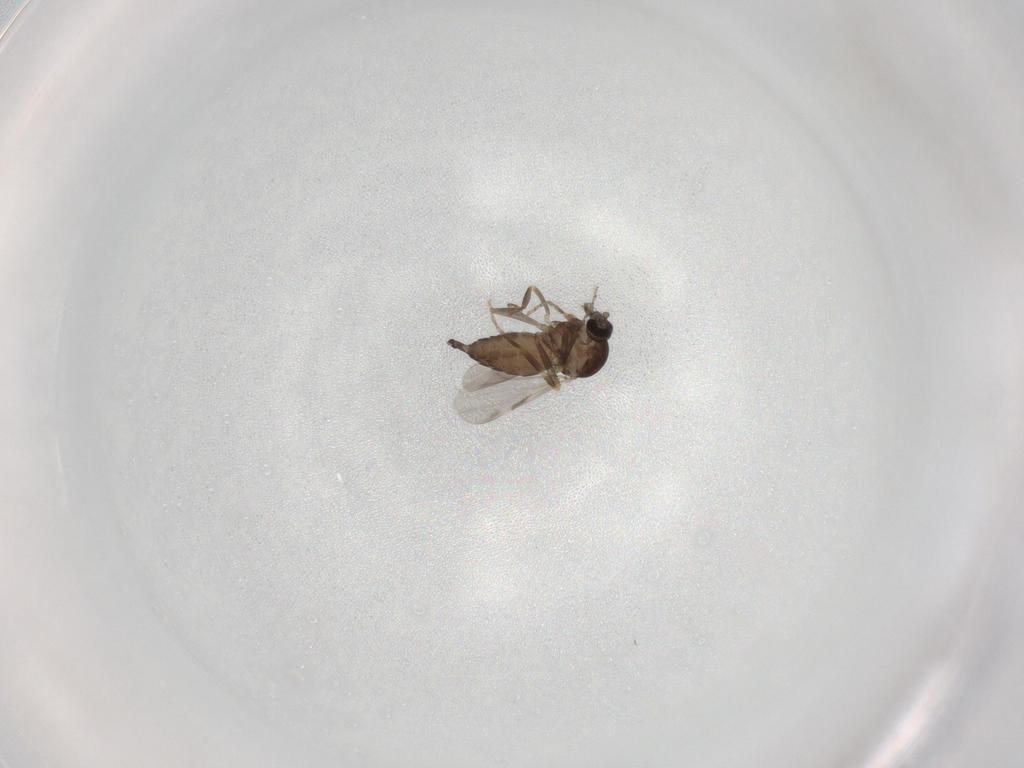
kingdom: Animalia
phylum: Arthropoda
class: Insecta
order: Diptera
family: Ceratopogonidae
